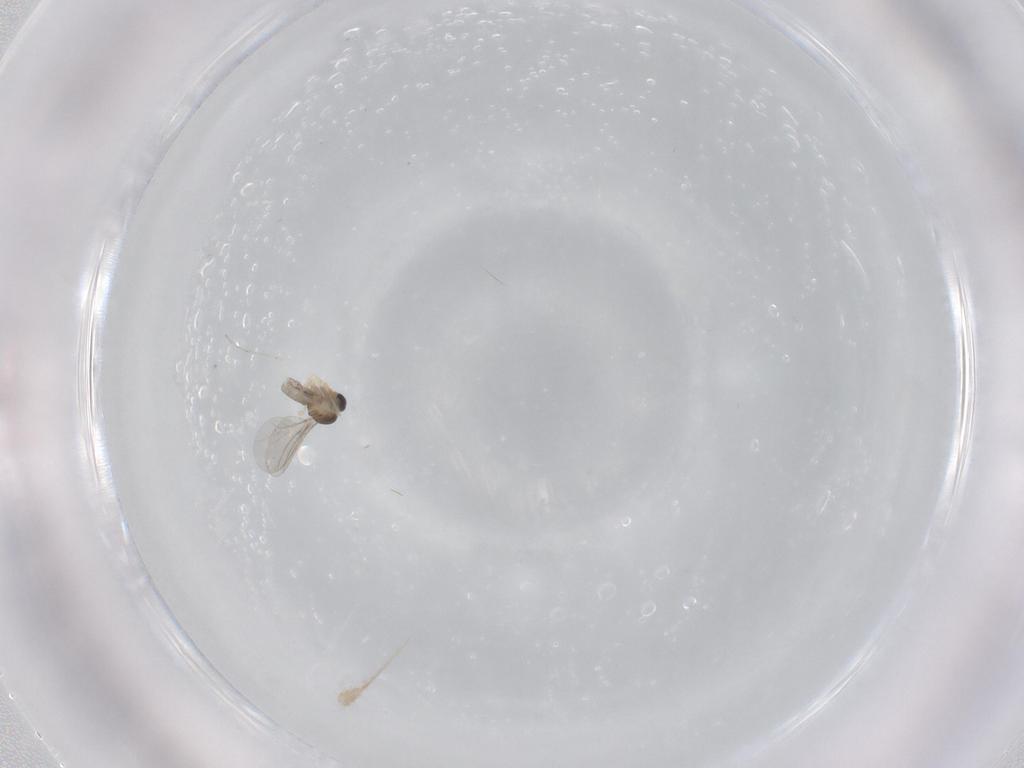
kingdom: Animalia
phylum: Arthropoda
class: Insecta
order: Diptera
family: Cecidomyiidae
